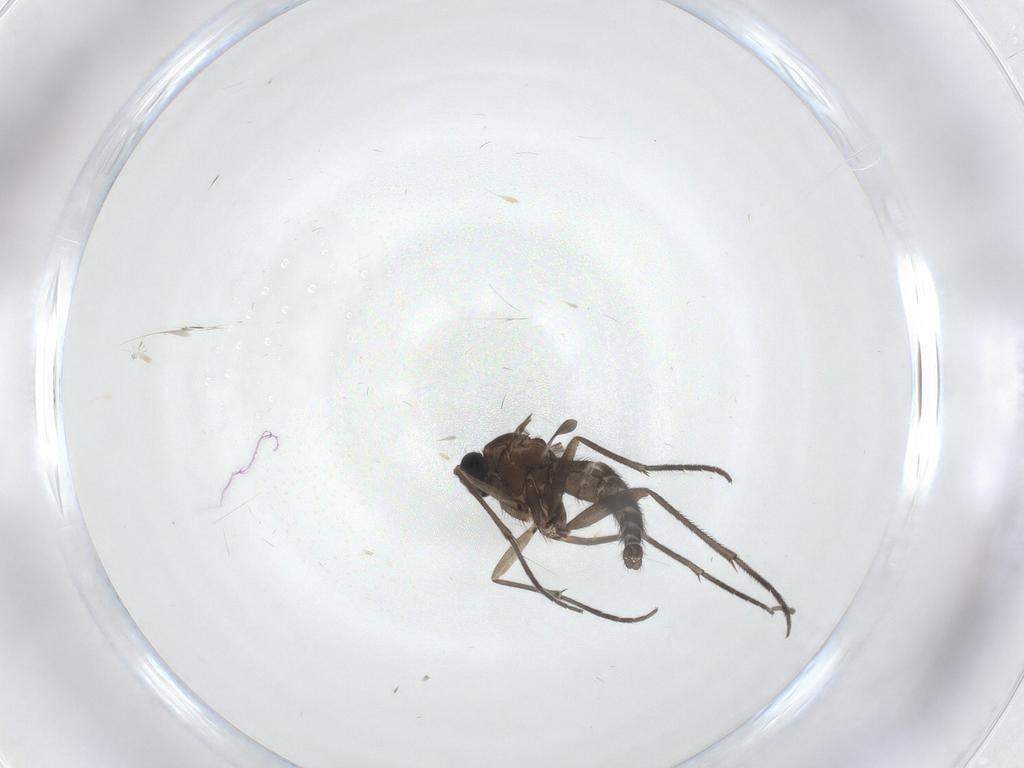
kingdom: Animalia
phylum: Arthropoda
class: Insecta
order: Diptera
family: Sciaridae
